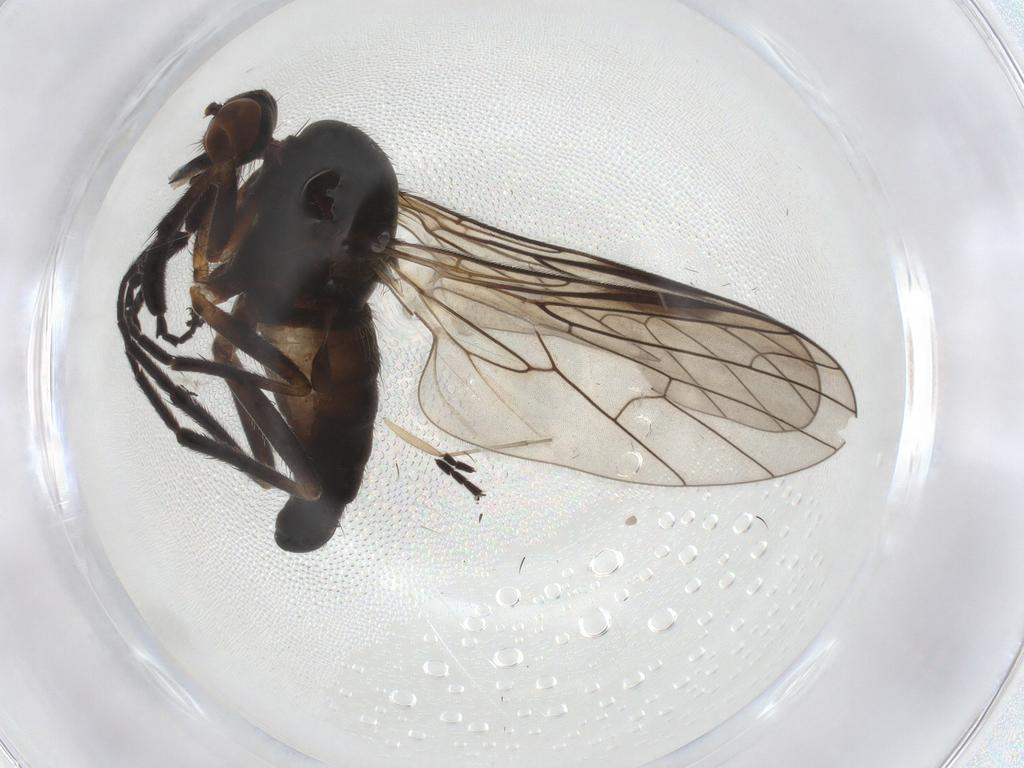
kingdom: Animalia
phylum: Arthropoda
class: Insecta
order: Diptera
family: Empididae
